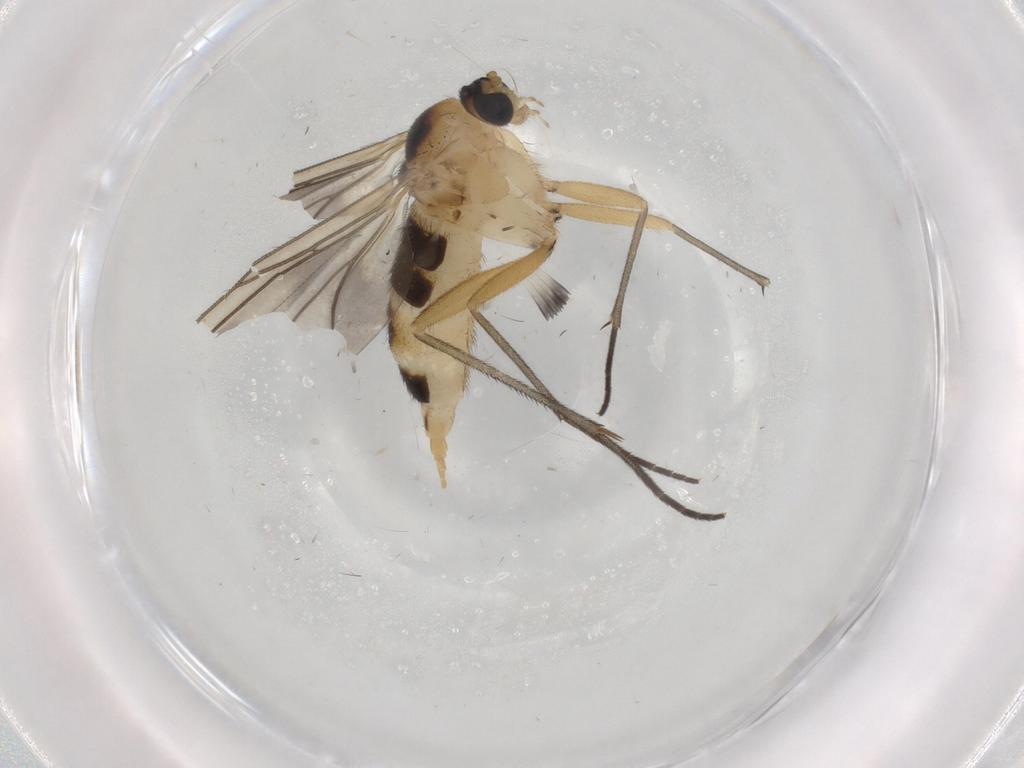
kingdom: Animalia
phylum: Arthropoda
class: Insecta
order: Diptera
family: Sciaridae
